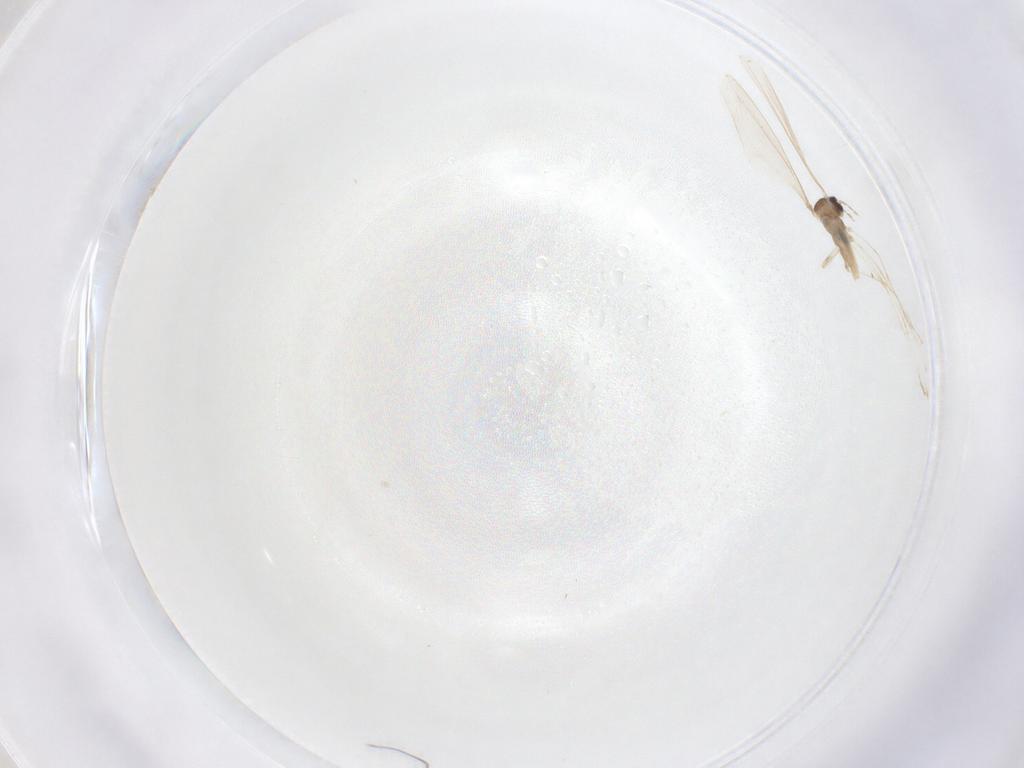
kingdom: Animalia
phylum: Arthropoda
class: Insecta
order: Diptera
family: Cecidomyiidae
